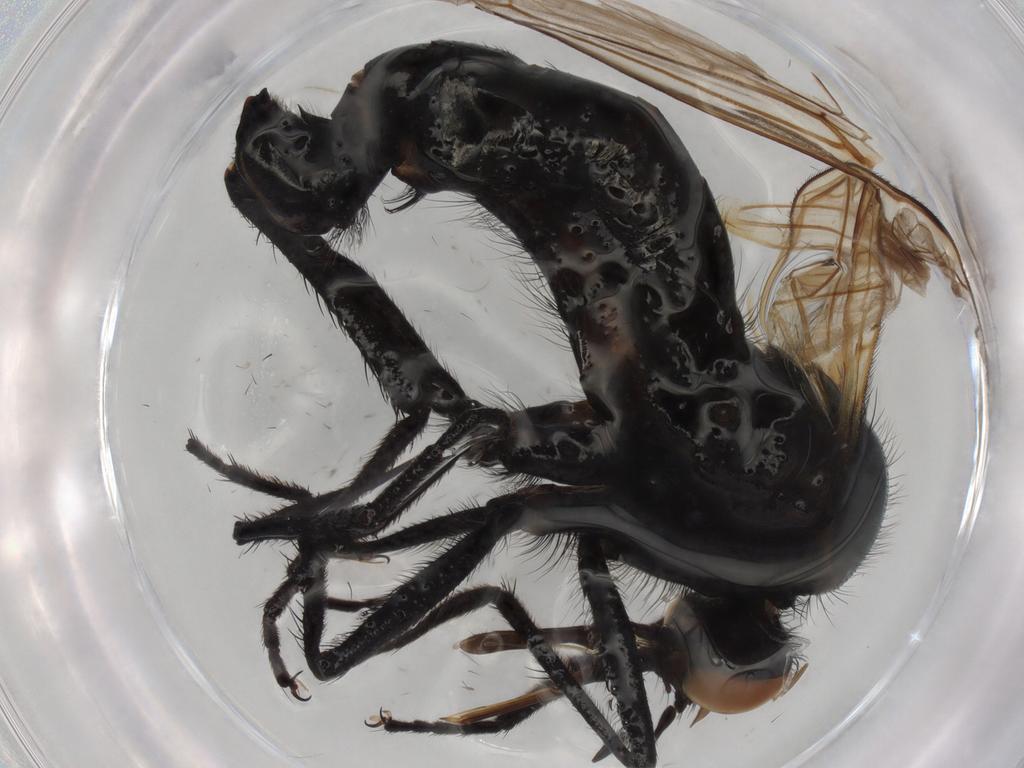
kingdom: Animalia
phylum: Arthropoda
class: Insecta
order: Diptera
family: Empididae
